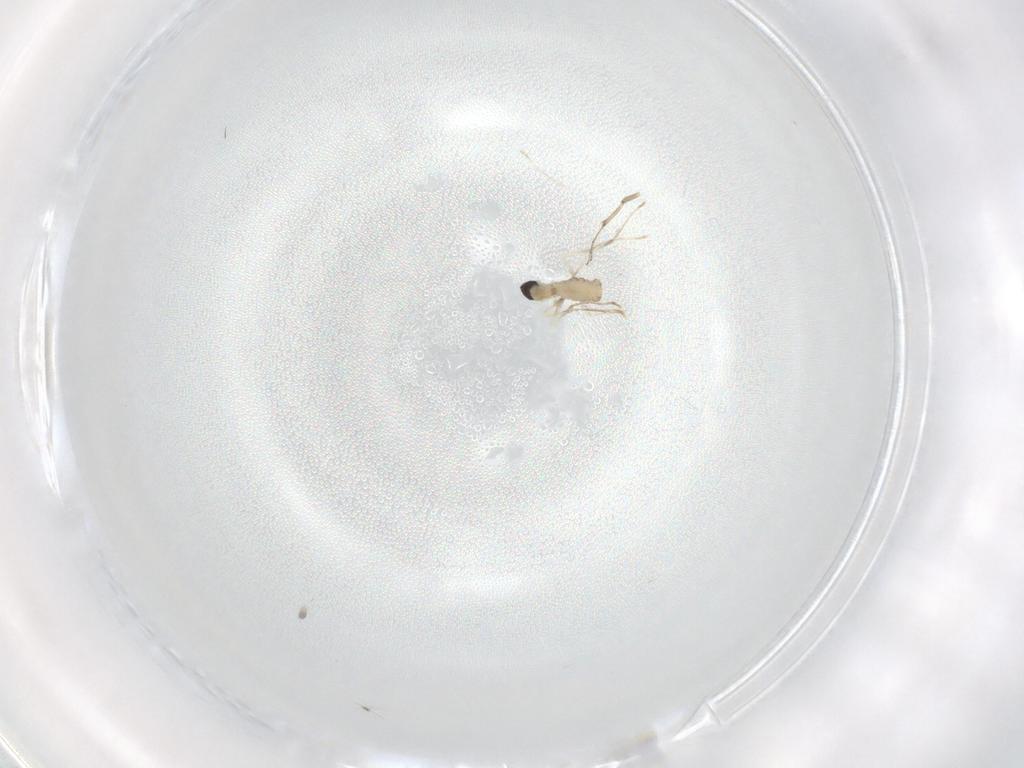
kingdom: Animalia
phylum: Arthropoda
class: Insecta
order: Diptera
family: Cecidomyiidae
